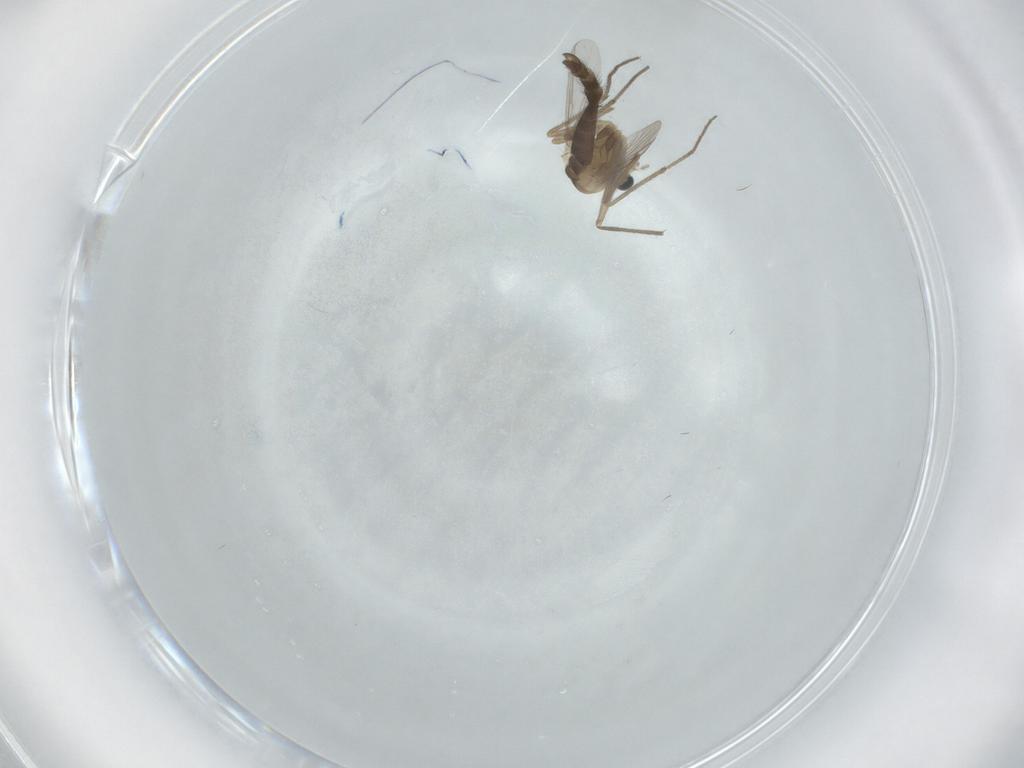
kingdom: Animalia
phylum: Arthropoda
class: Insecta
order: Diptera
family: Chironomidae
